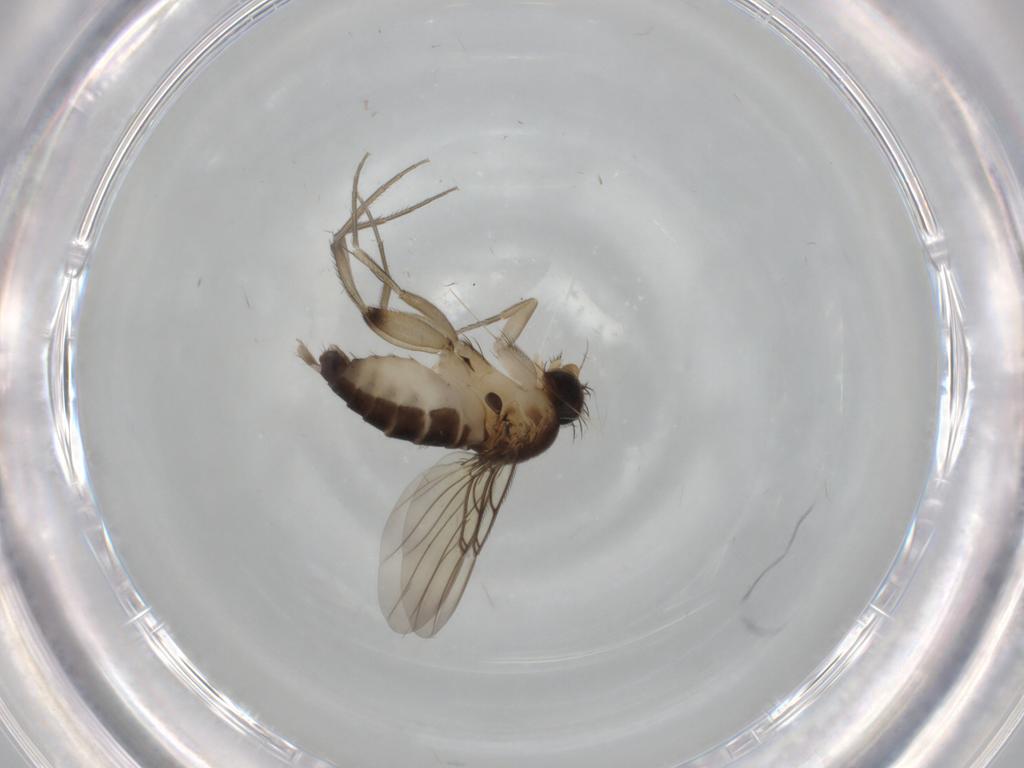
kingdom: Animalia
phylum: Arthropoda
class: Insecta
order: Diptera
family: Phoridae
